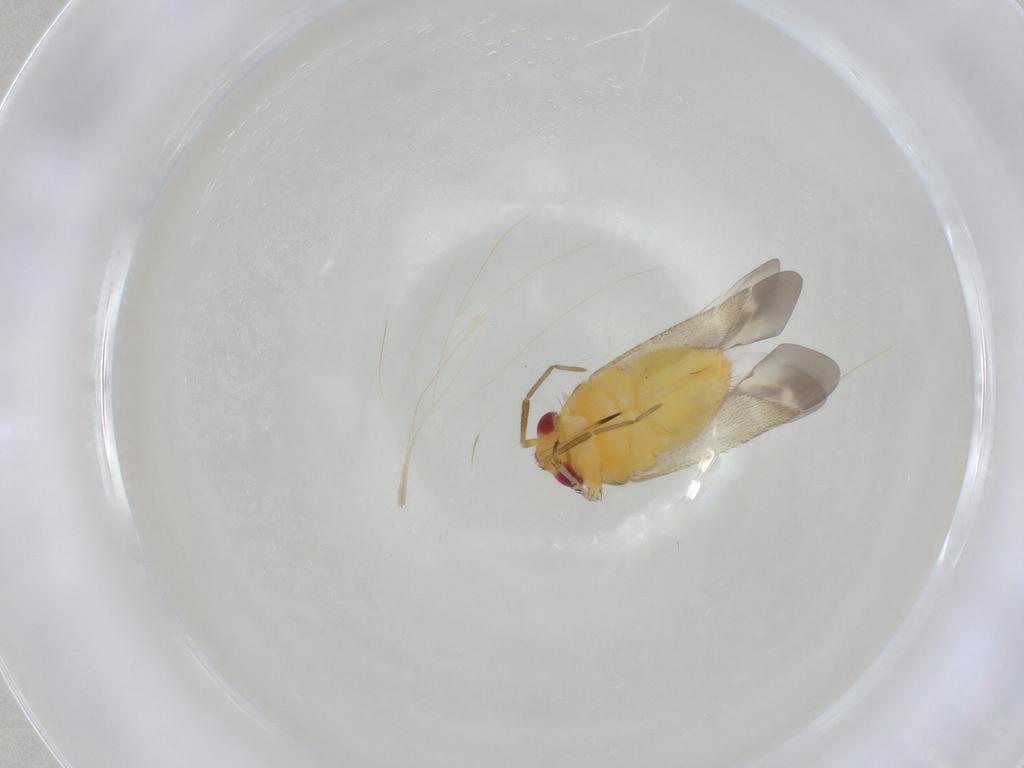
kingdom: Animalia
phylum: Arthropoda
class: Insecta
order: Hemiptera
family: Miridae
